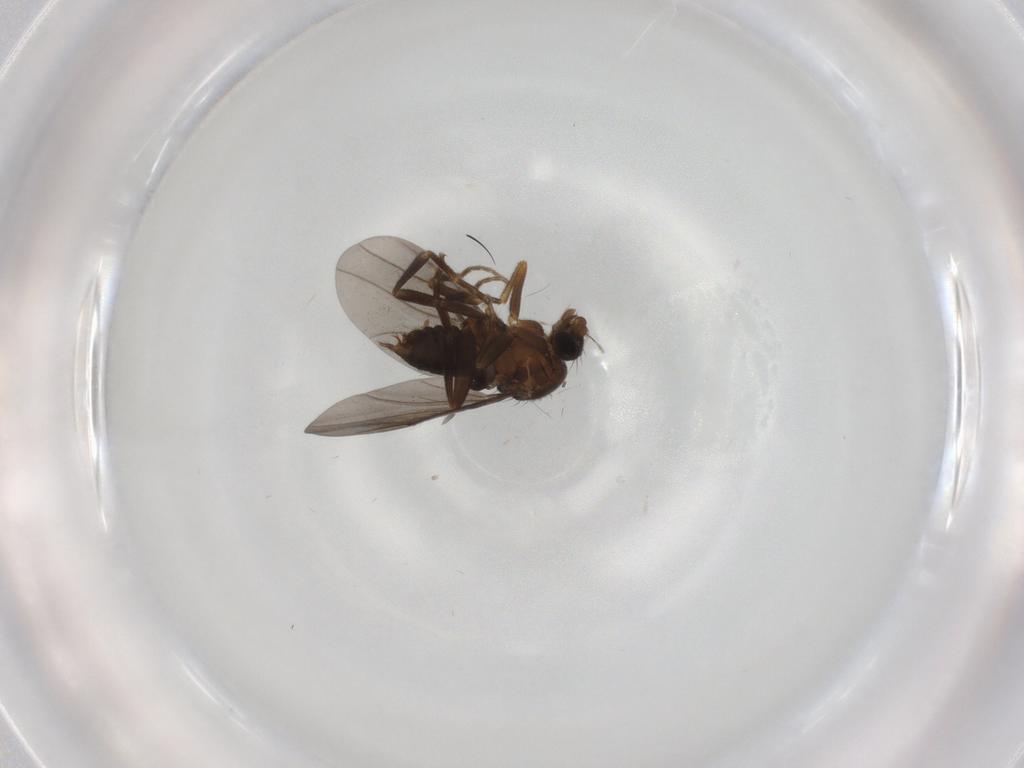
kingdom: Animalia
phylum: Arthropoda
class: Insecta
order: Diptera
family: Phoridae
